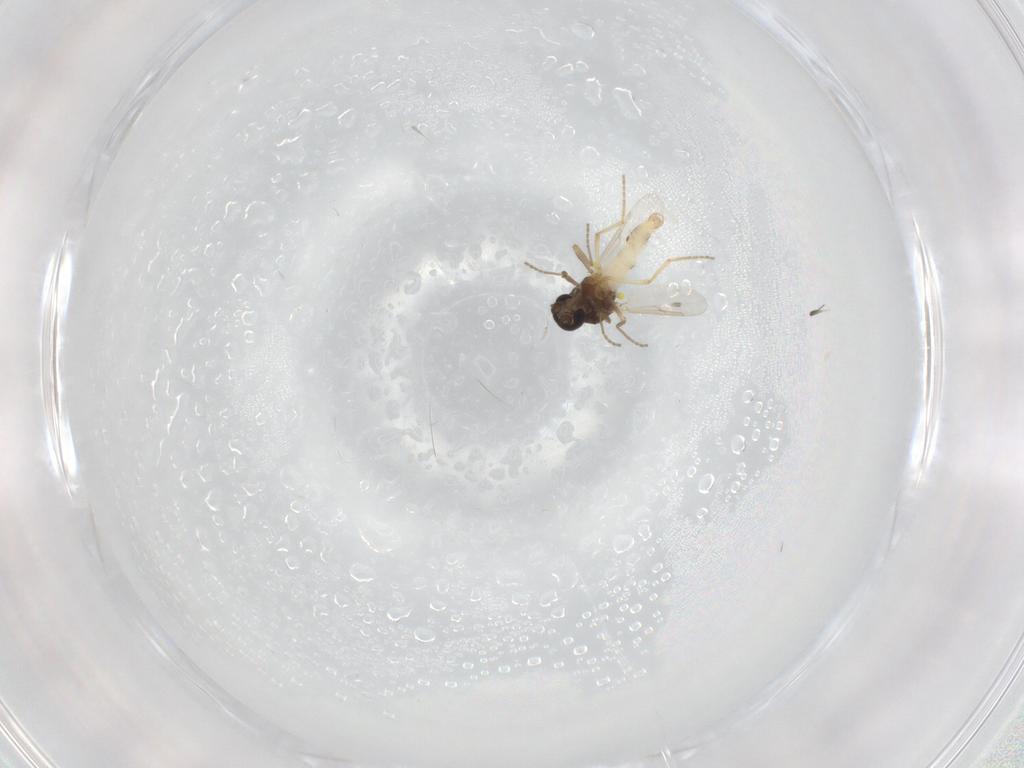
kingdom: Animalia
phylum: Arthropoda
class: Insecta
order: Diptera
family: Ceratopogonidae
